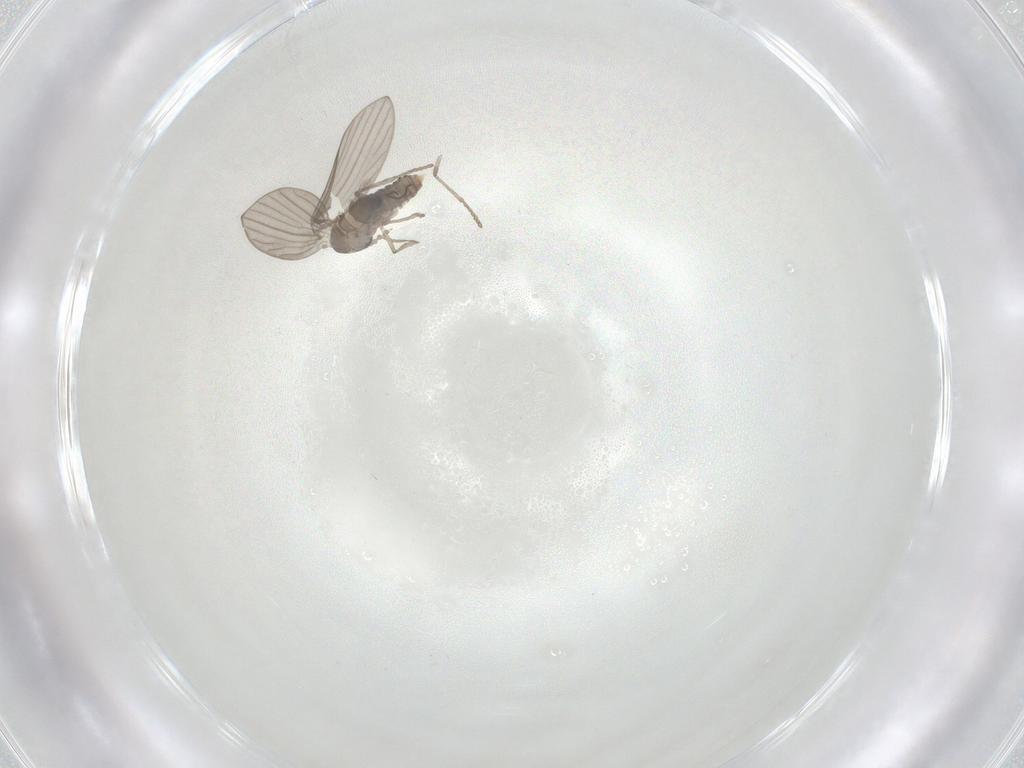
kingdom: Animalia
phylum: Arthropoda
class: Insecta
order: Diptera
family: Psychodidae
